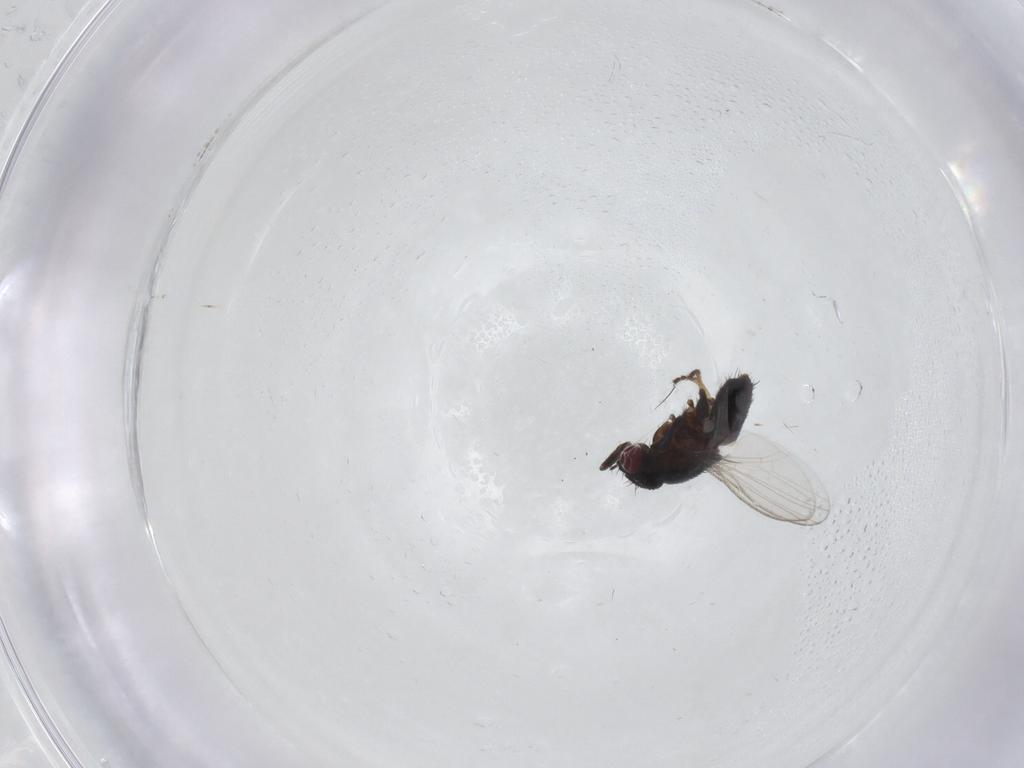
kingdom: Animalia
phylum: Arthropoda
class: Insecta
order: Diptera
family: Milichiidae
